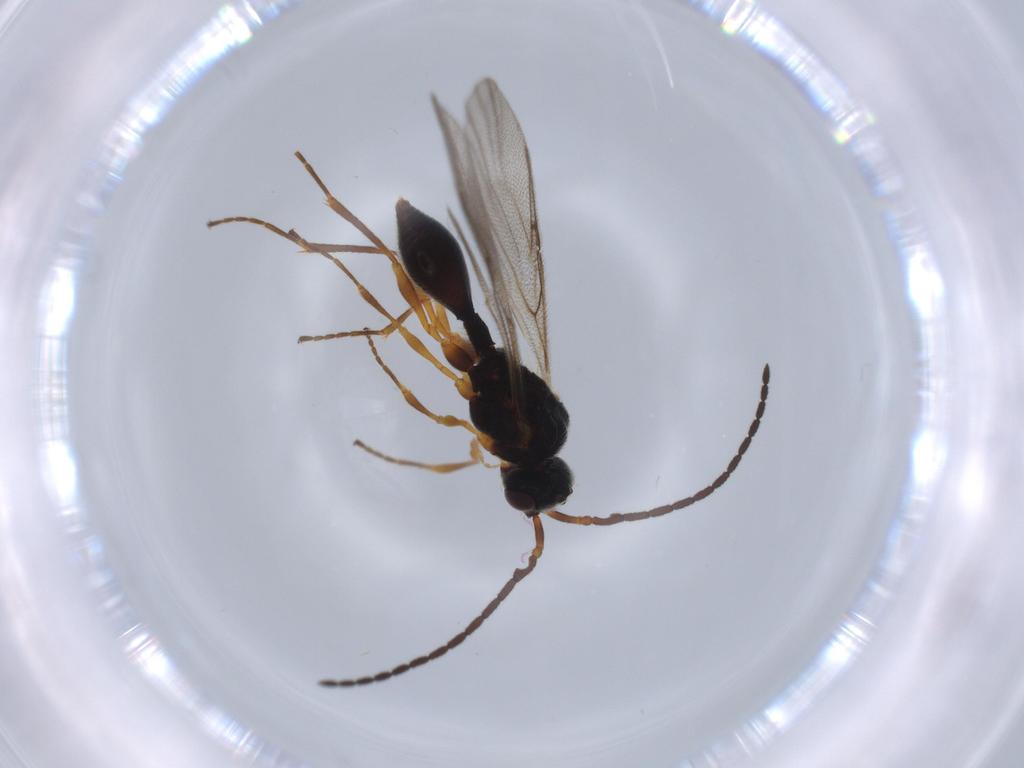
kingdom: Animalia
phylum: Arthropoda
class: Insecta
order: Hymenoptera
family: Diapriidae
